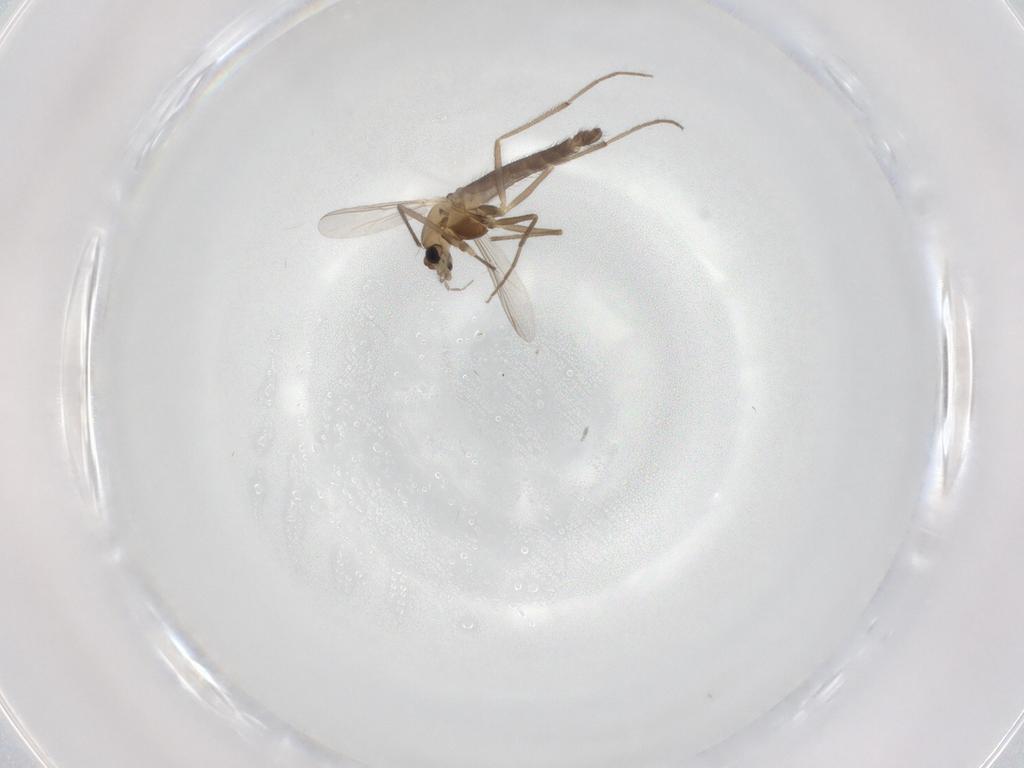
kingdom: Animalia
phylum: Arthropoda
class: Insecta
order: Diptera
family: Chironomidae
